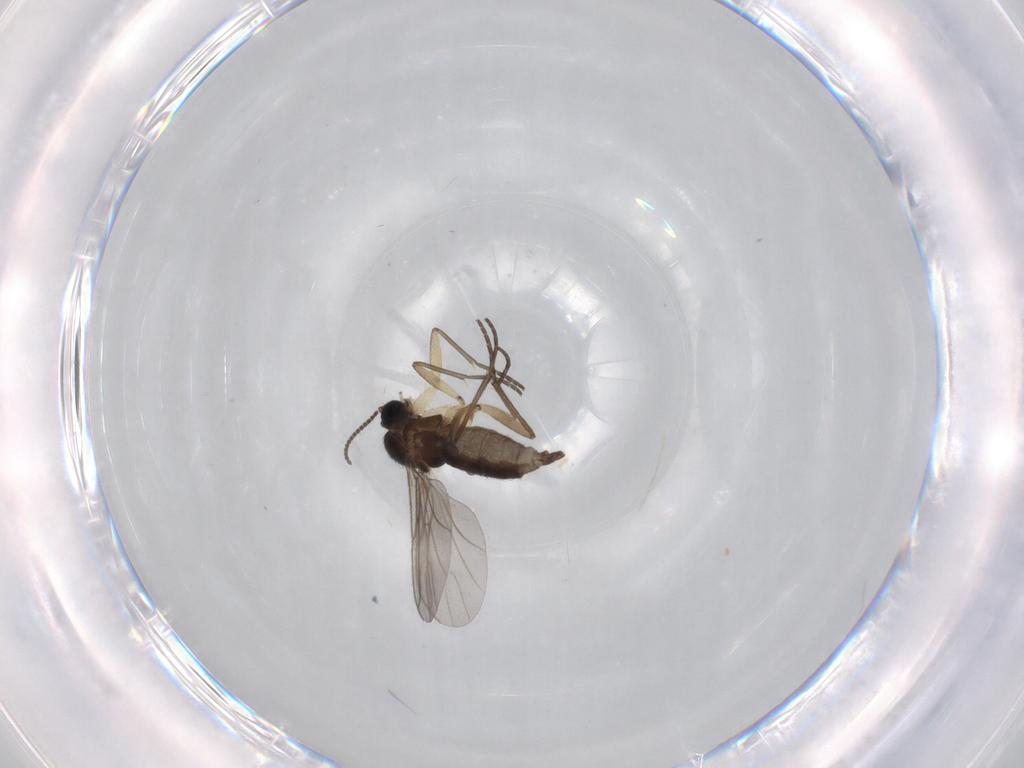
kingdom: Animalia
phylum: Arthropoda
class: Insecta
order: Diptera
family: Sciaridae
